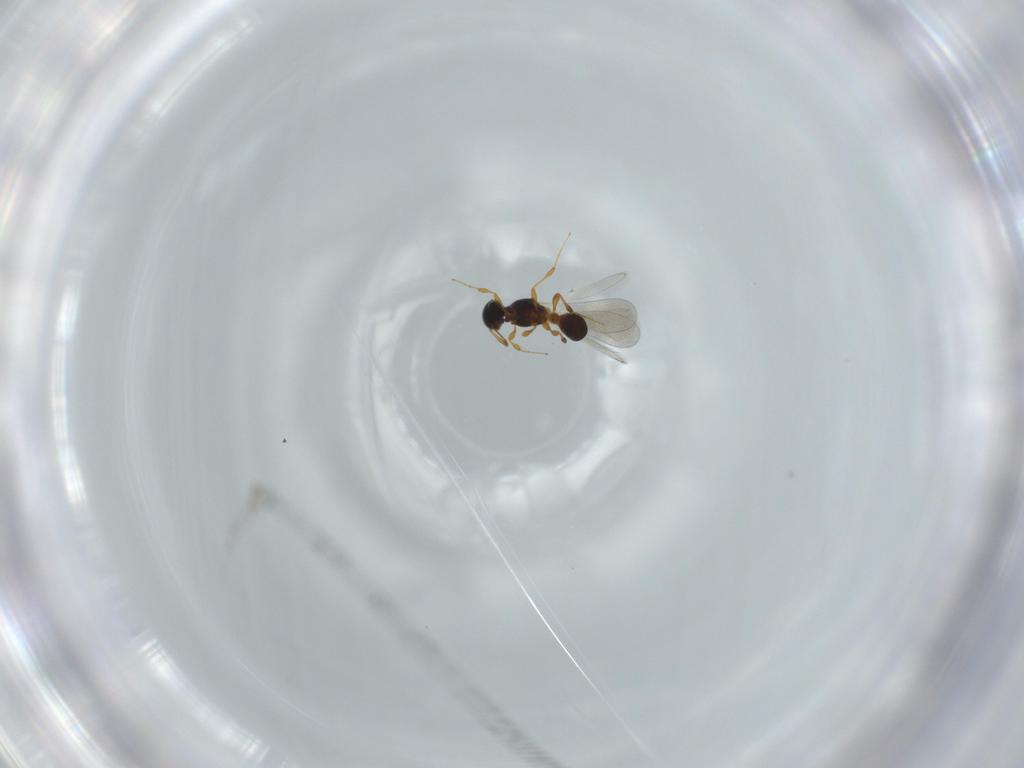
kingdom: Animalia
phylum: Arthropoda
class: Insecta
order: Hymenoptera
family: Platygastridae
